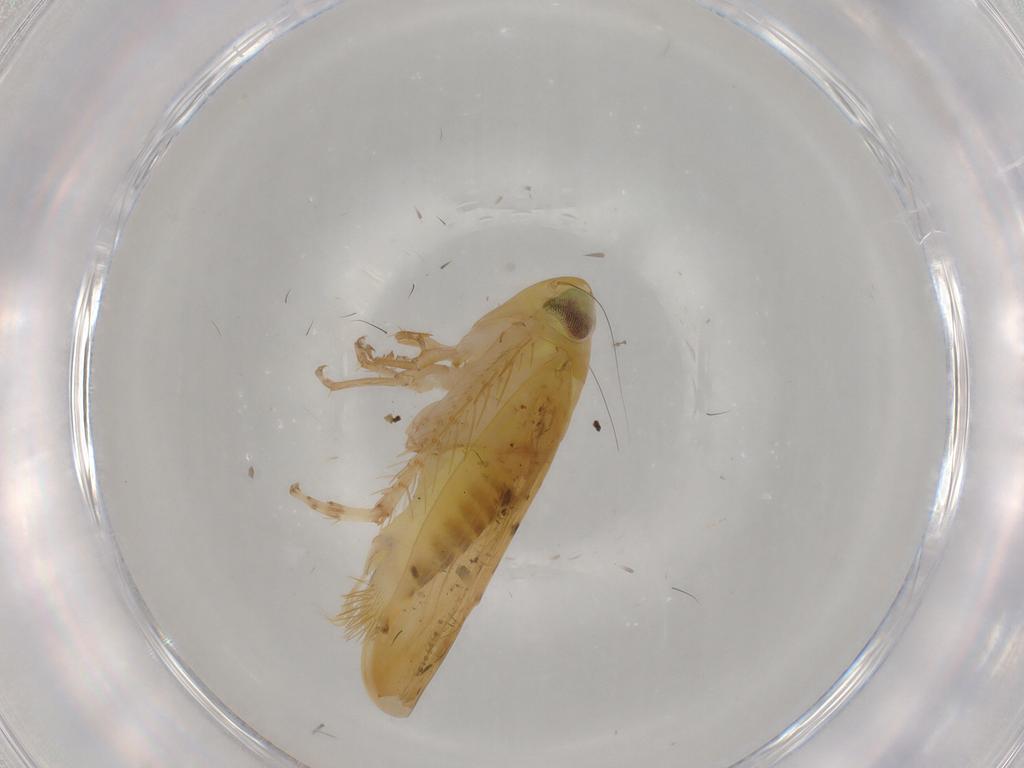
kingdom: Animalia
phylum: Arthropoda
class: Insecta
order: Hemiptera
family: Cicadellidae
